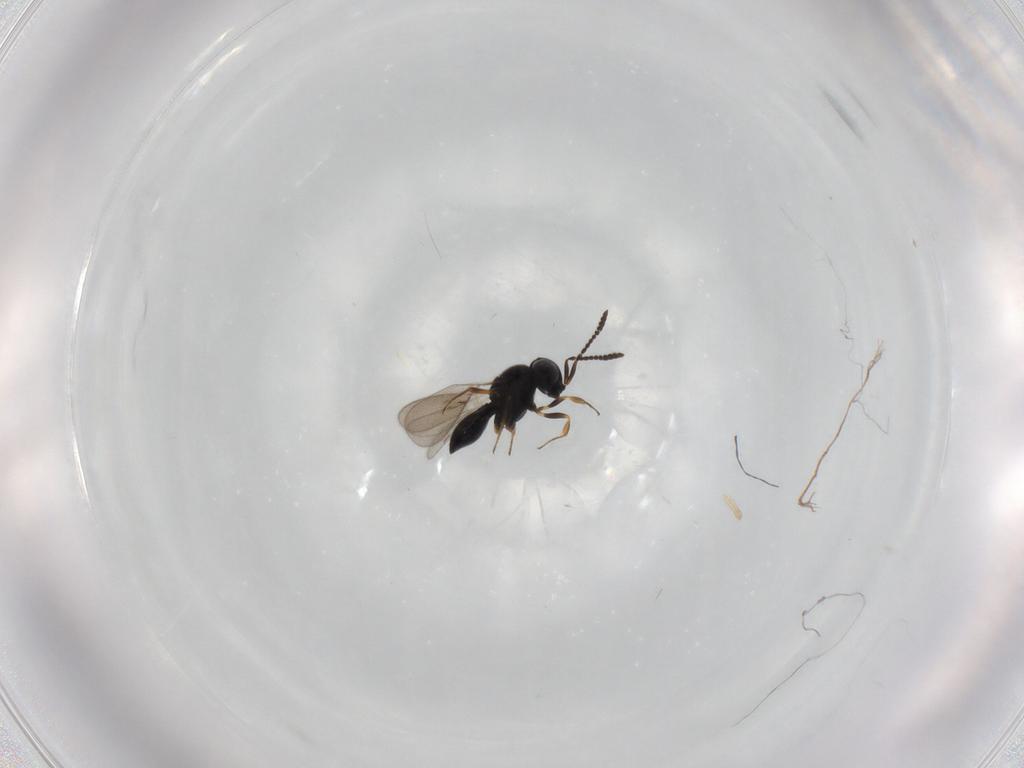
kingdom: Animalia
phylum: Arthropoda
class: Insecta
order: Hymenoptera
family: Scelionidae
